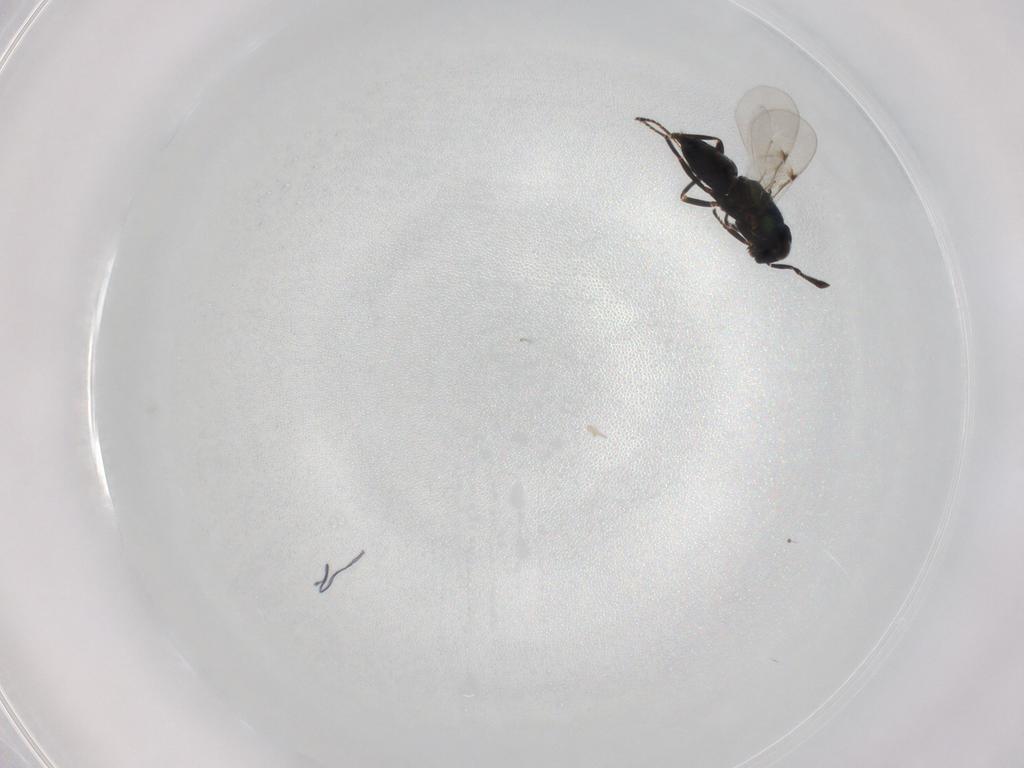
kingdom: Animalia
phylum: Arthropoda
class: Insecta
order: Hymenoptera
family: Encyrtidae
